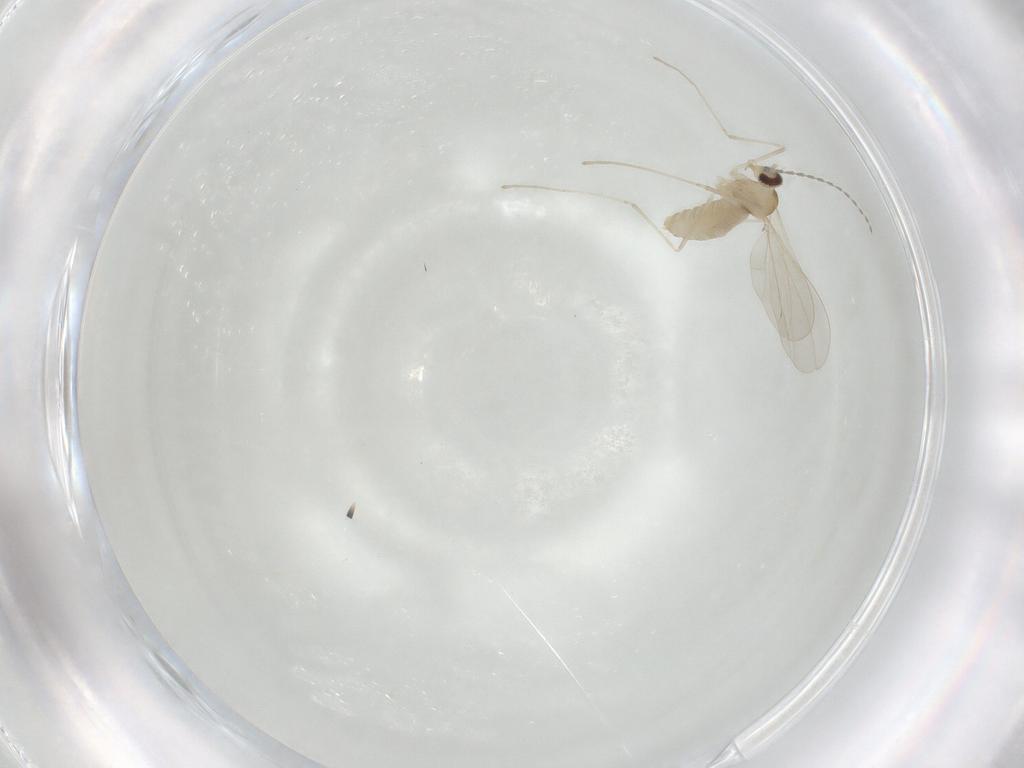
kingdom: Animalia
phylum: Arthropoda
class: Insecta
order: Diptera
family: Cecidomyiidae
